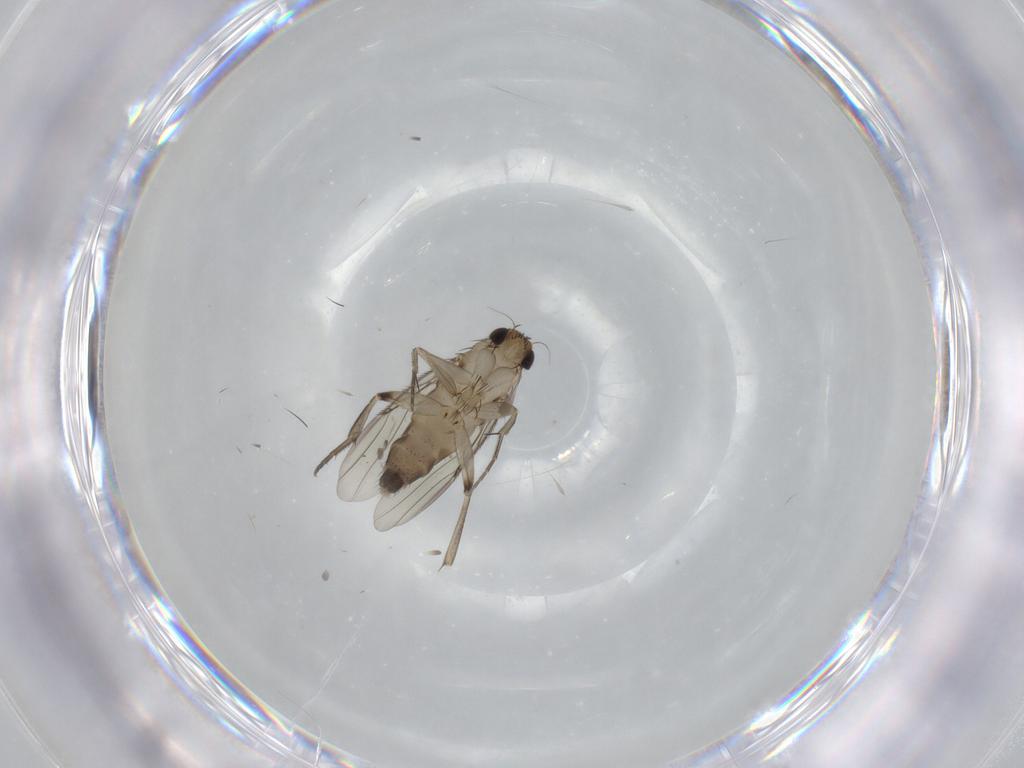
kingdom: Animalia
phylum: Arthropoda
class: Insecta
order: Diptera
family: Phoridae
